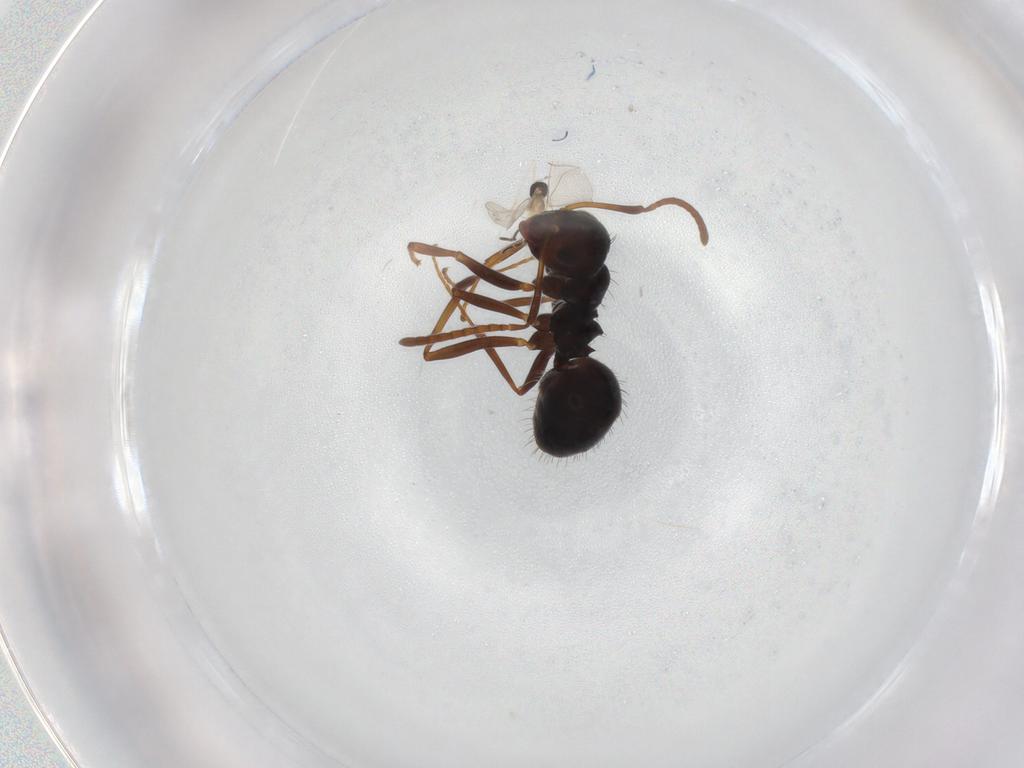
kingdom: Animalia
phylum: Arthropoda
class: Insecta
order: Diptera
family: Cecidomyiidae
